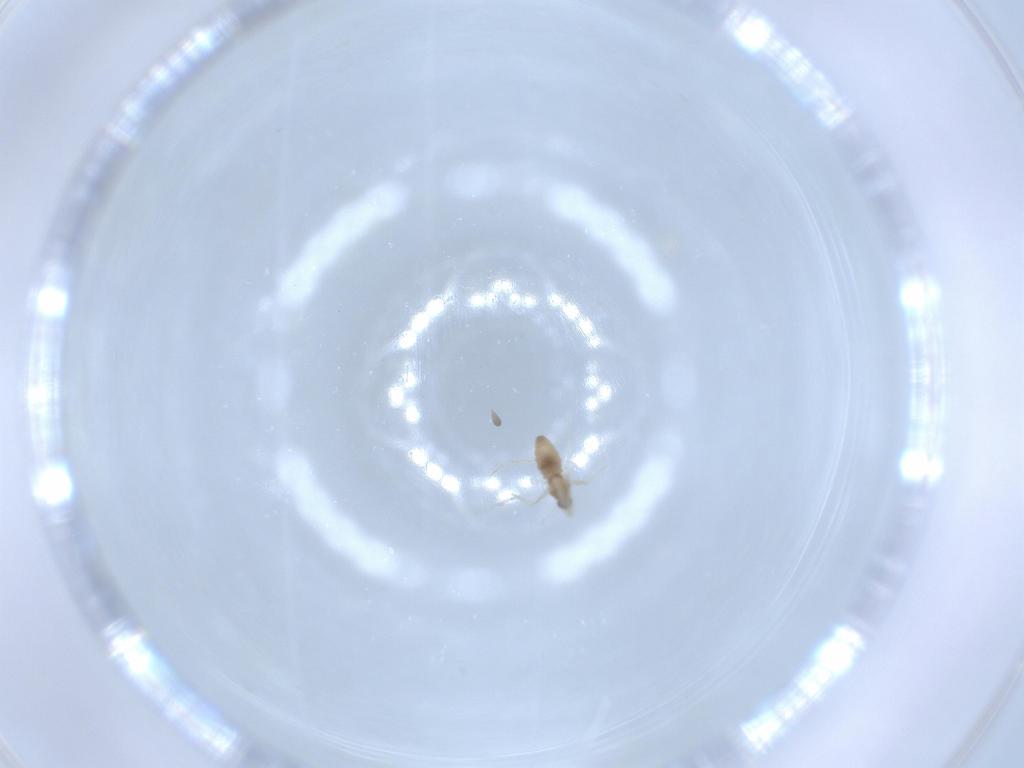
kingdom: Animalia
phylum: Arthropoda
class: Insecta
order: Diptera
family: Cecidomyiidae
